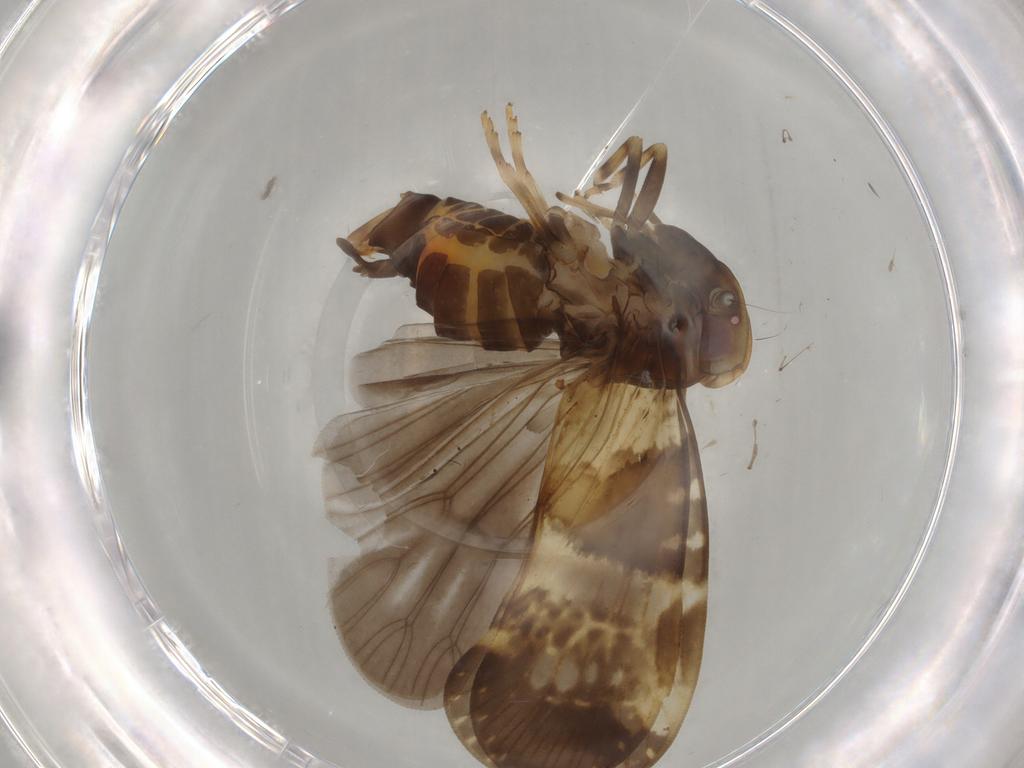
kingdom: Animalia
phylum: Arthropoda
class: Insecta
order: Hemiptera
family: Cixiidae
